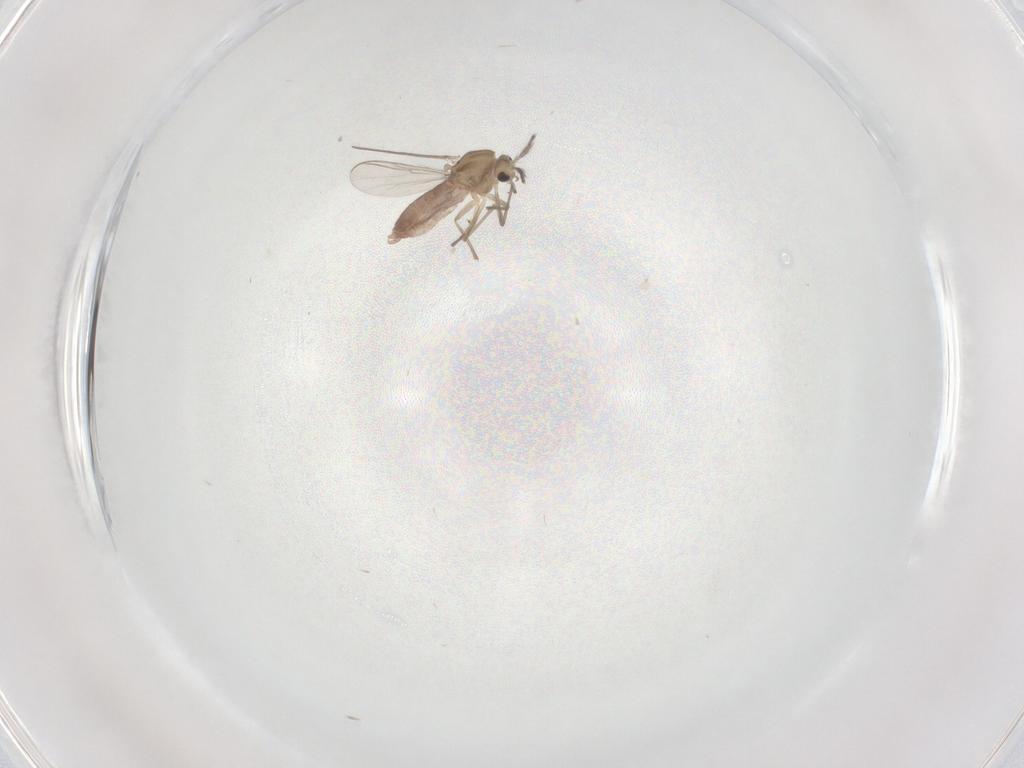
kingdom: Animalia
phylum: Arthropoda
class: Insecta
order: Diptera
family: Chironomidae
